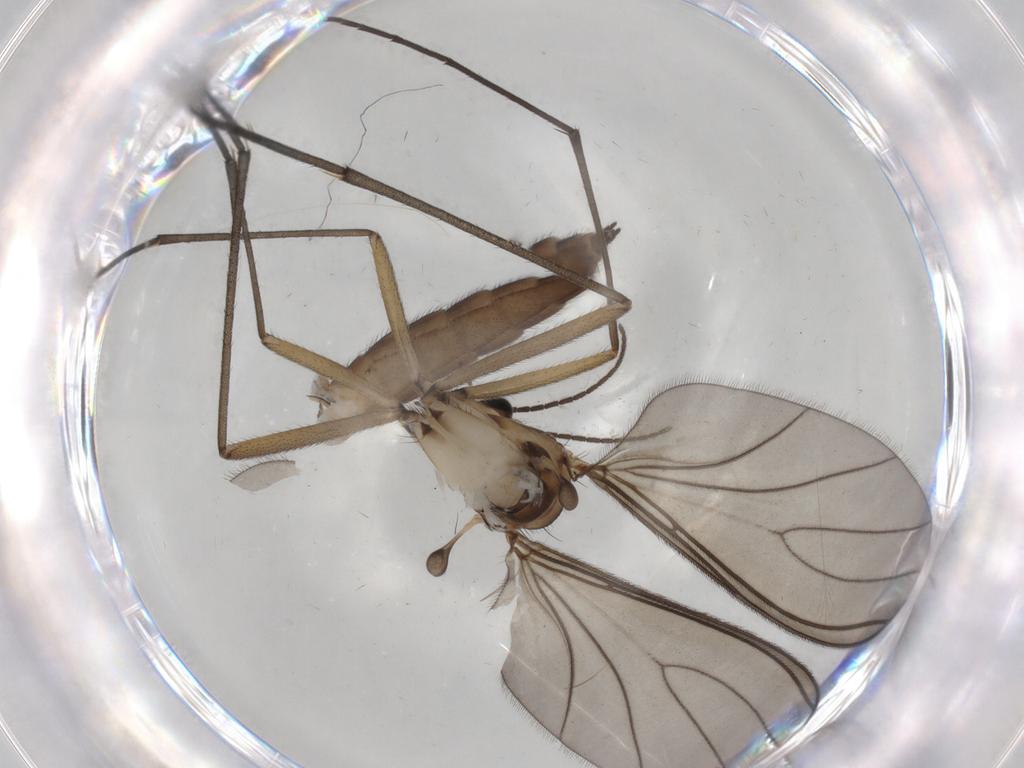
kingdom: Animalia
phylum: Arthropoda
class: Insecta
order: Diptera
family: Sciaridae
